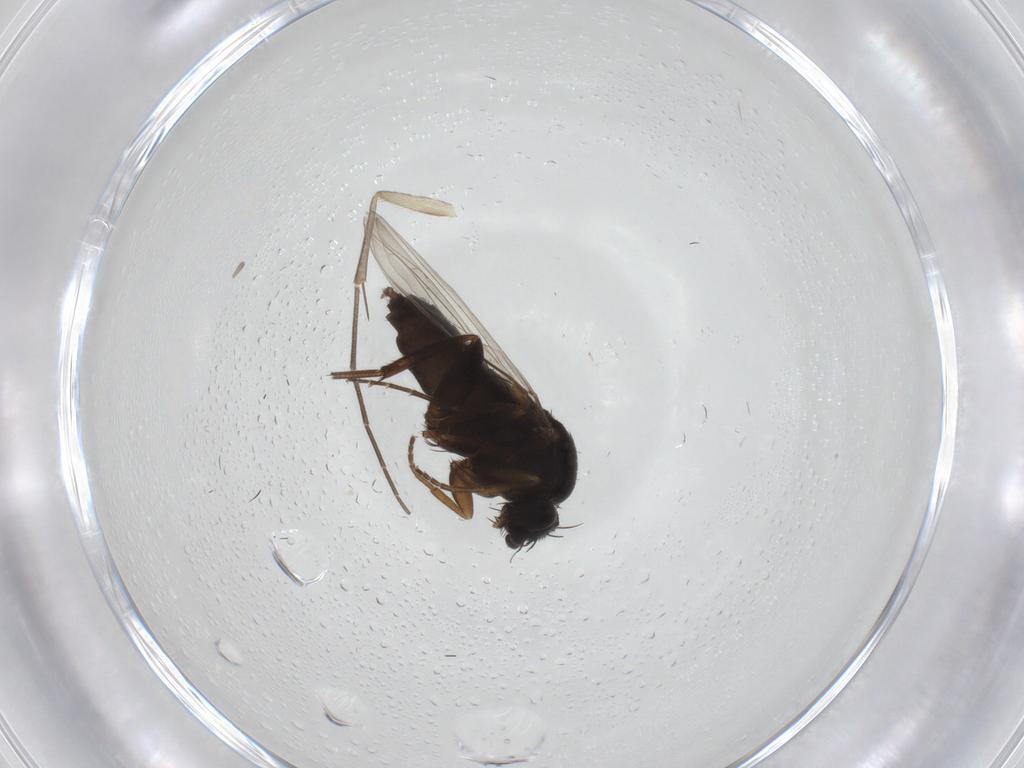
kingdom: Animalia
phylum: Arthropoda
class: Insecta
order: Diptera
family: Phoridae
